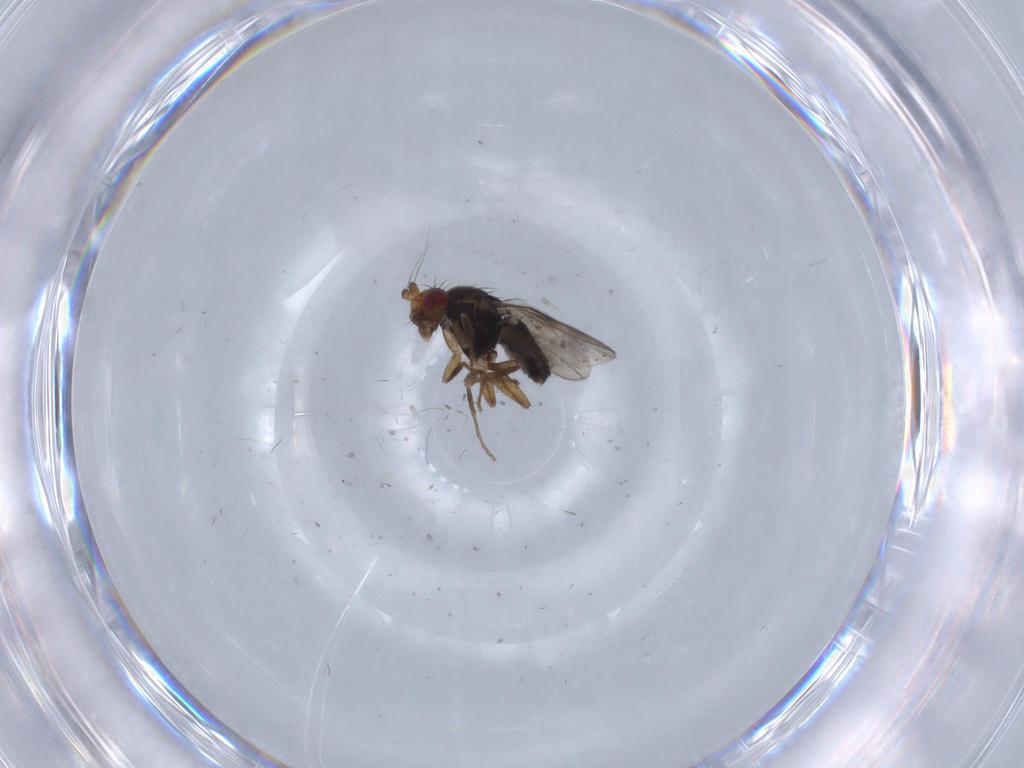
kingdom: Animalia
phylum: Arthropoda
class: Insecta
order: Diptera
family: Sphaeroceridae
